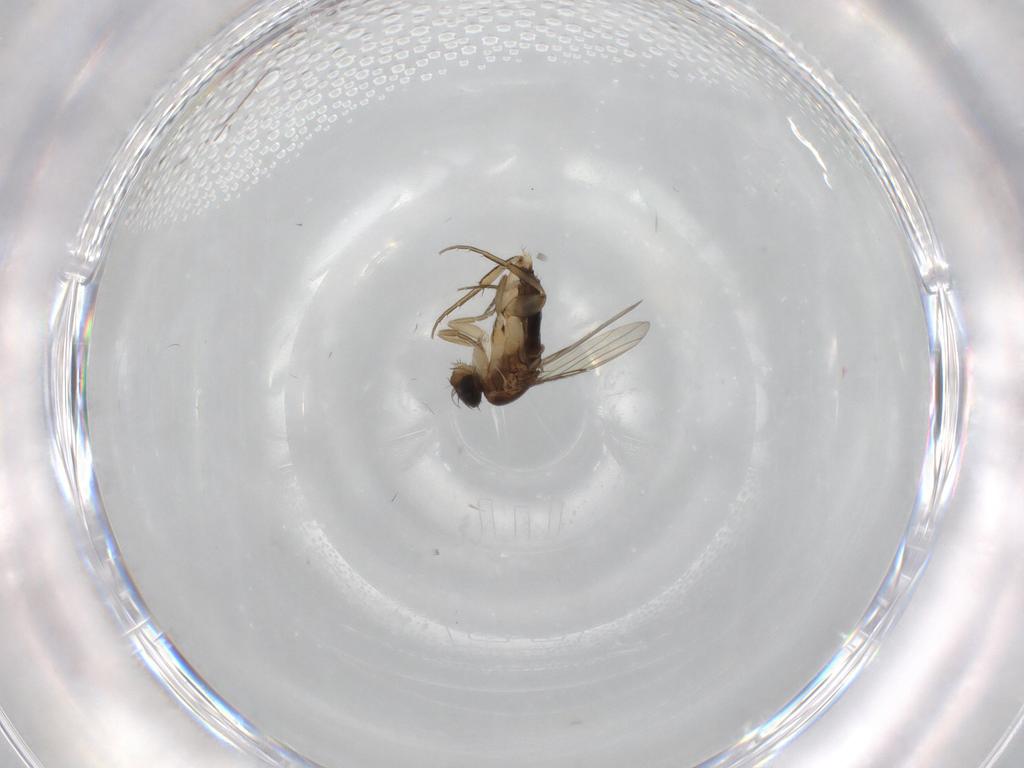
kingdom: Animalia
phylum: Arthropoda
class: Insecta
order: Diptera
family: Phoridae
